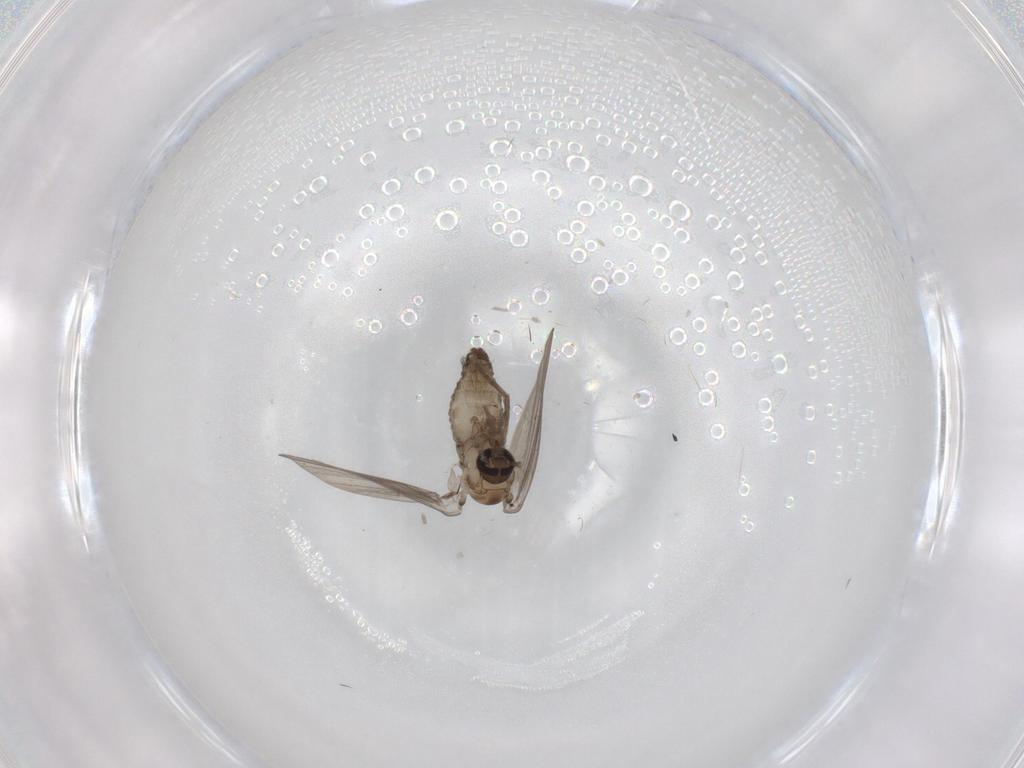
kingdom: Animalia
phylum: Arthropoda
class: Insecta
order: Diptera
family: Psychodidae
